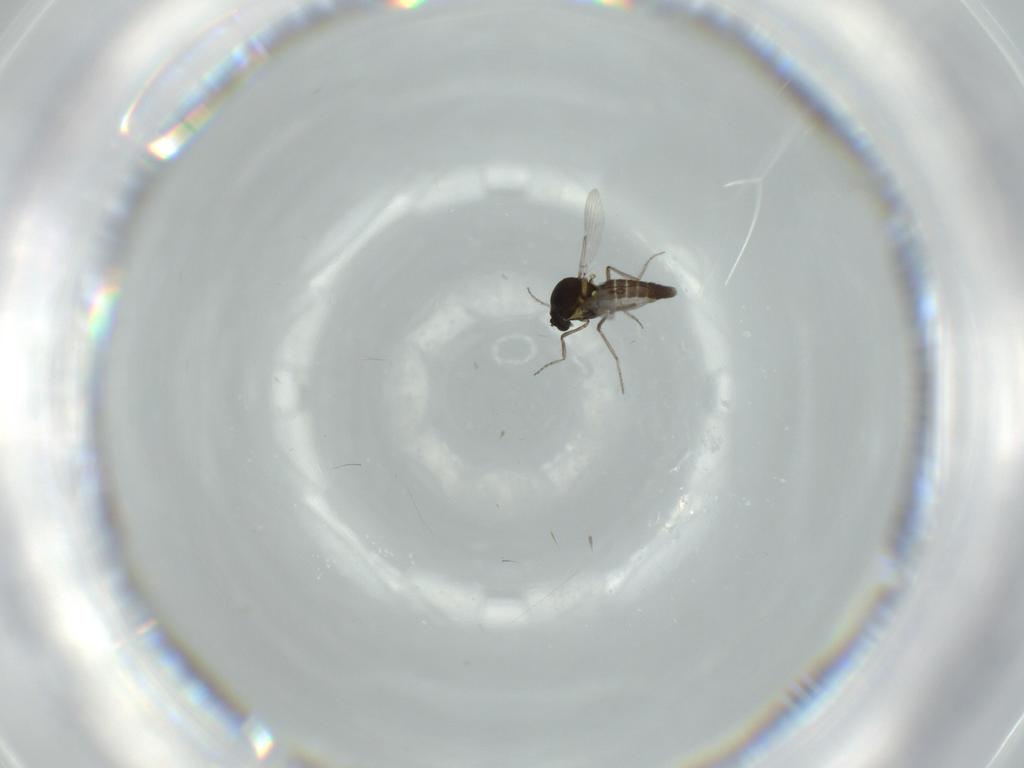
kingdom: Animalia
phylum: Arthropoda
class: Insecta
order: Diptera
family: Ceratopogonidae
